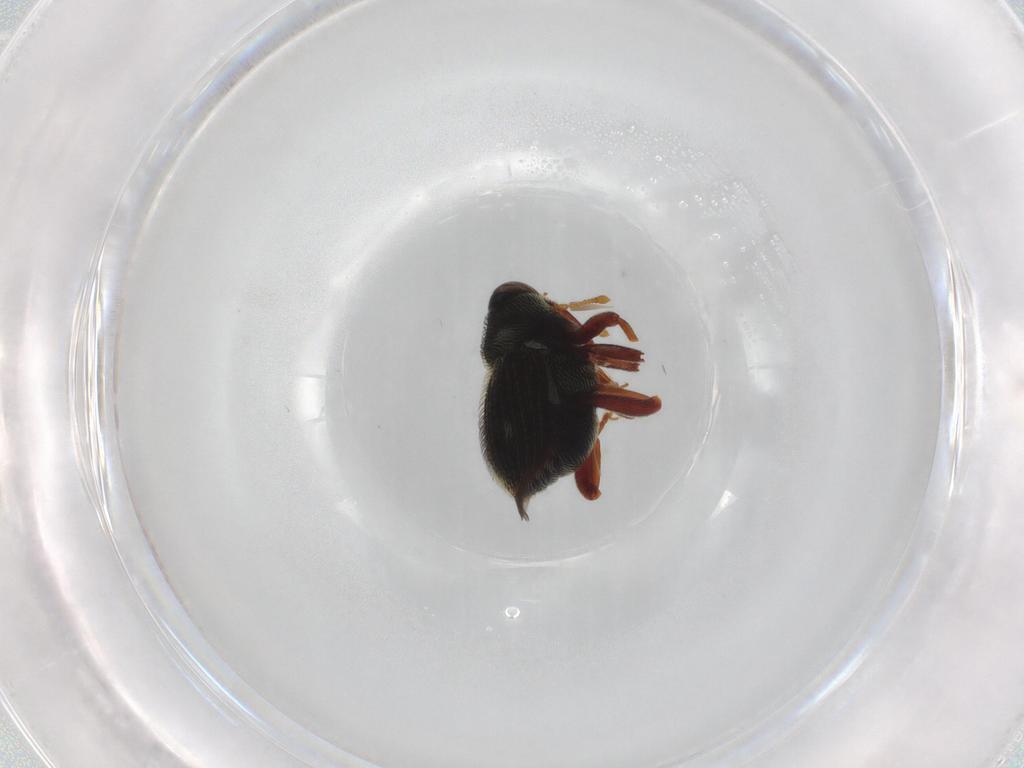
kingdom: Animalia
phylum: Arthropoda
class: Insecta
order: Coleoptera
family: Curculionidae
